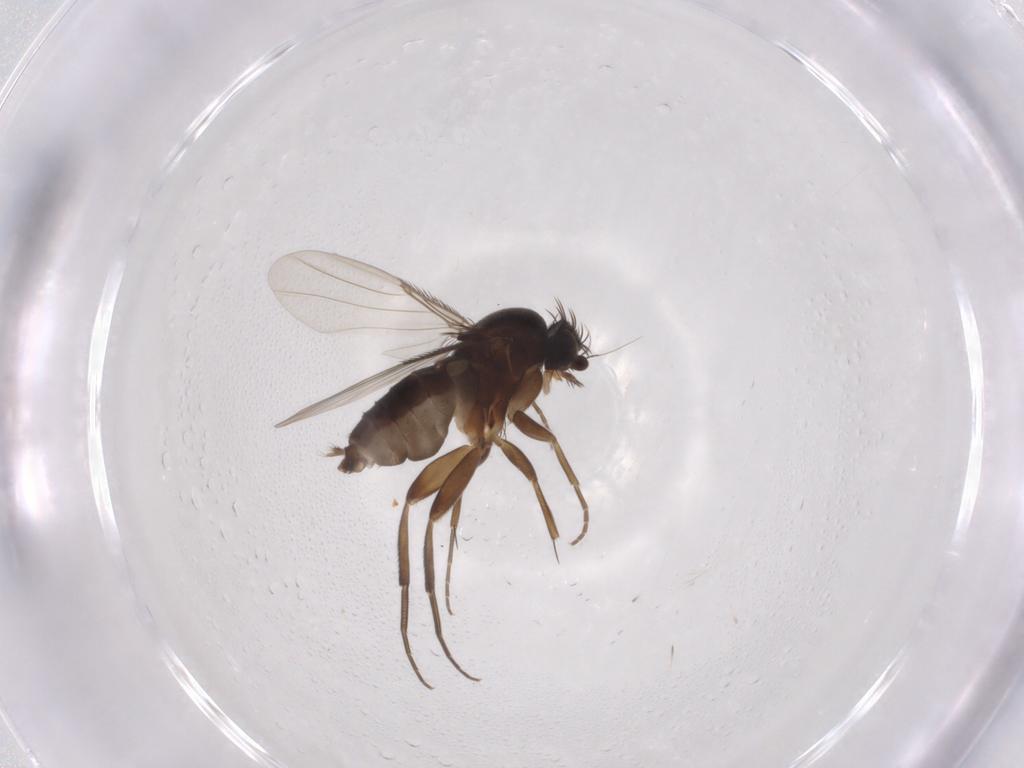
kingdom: Animalia
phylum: Arthropoda
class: Insecta
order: Diptera
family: Phoridae
